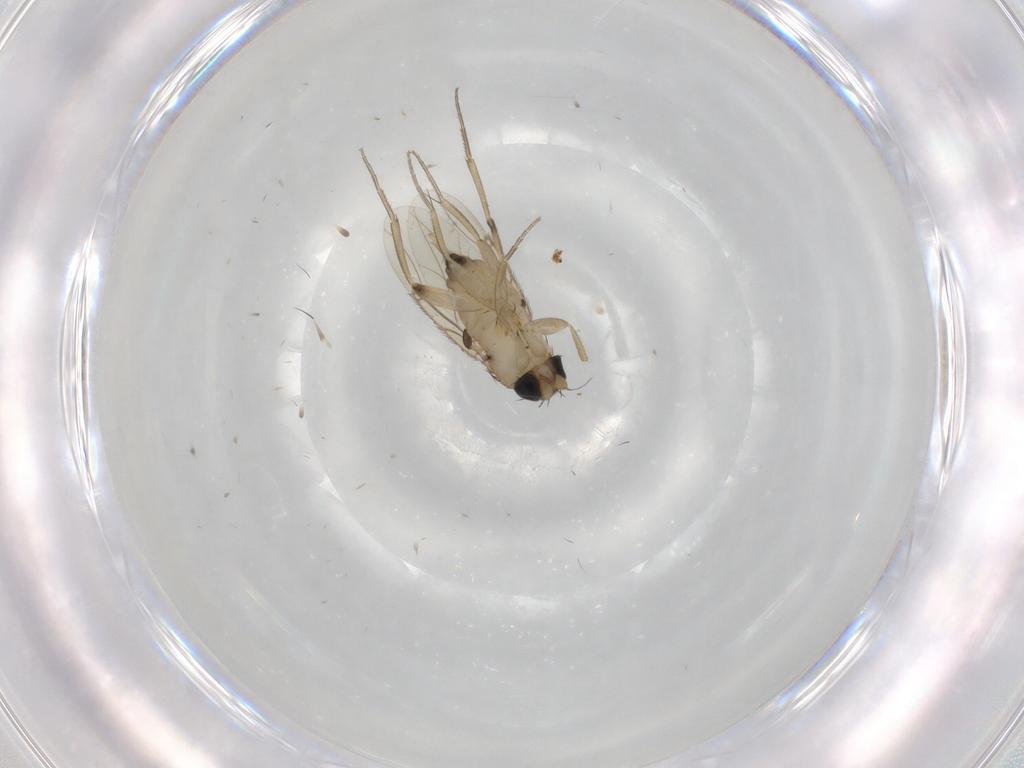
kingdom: Animalia
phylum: Arthropoda
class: Insecta
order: Diptera
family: Phoridae
